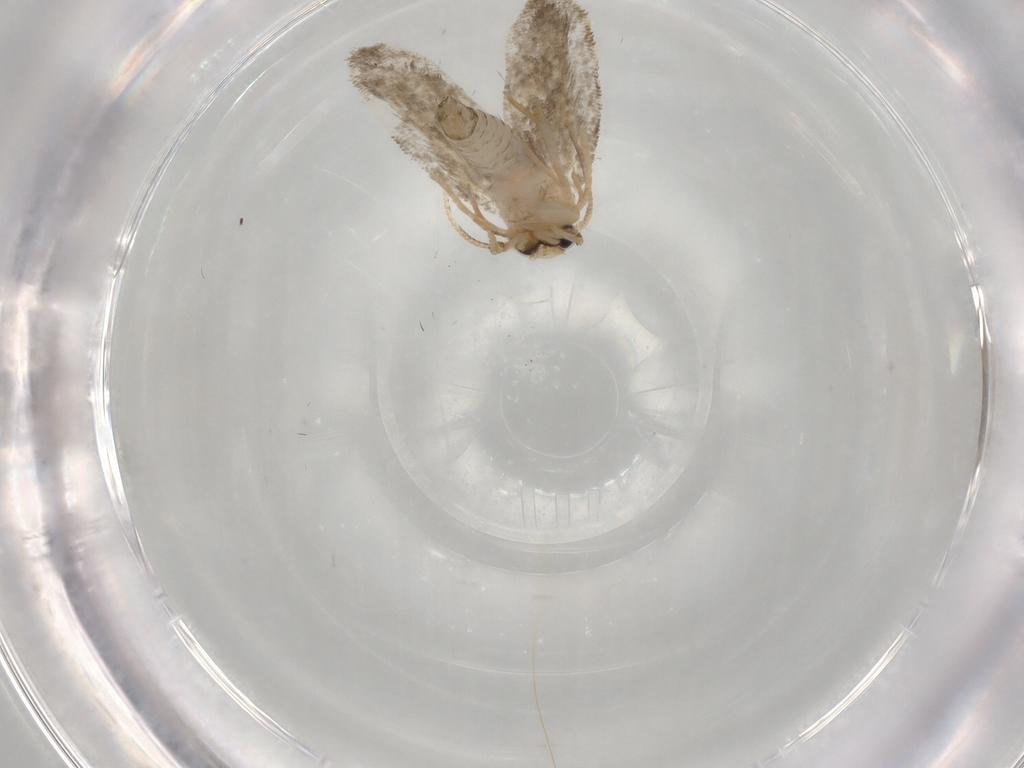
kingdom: Animalia
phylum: Arthropoda
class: Insecta
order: Lepidoptera
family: Psychidae
